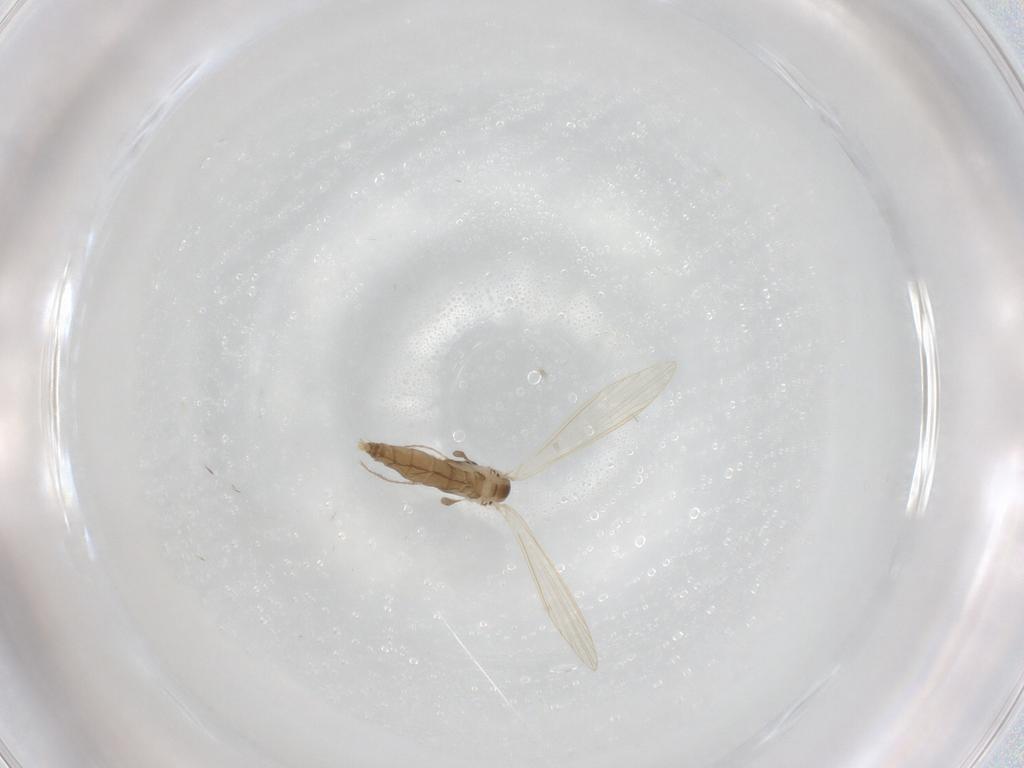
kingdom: Animalia
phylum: Arthropoda
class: Insecta
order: Diptera
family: Psychodidae
